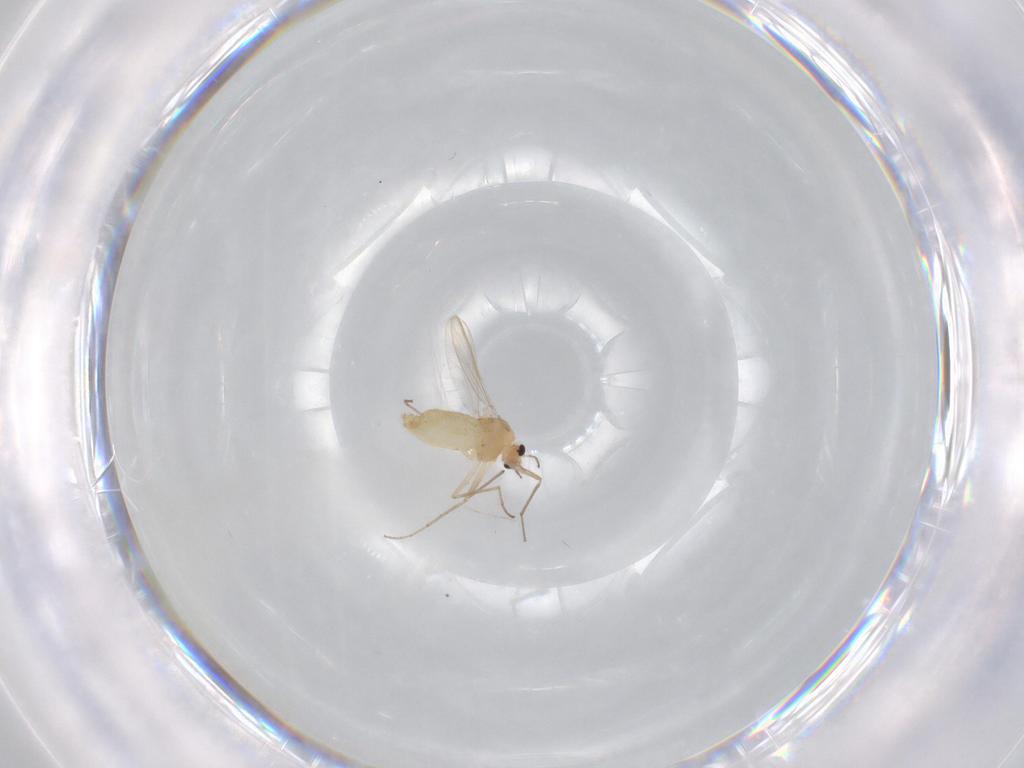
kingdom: Animalia
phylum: Arthropoda
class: Insecta
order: Diptera
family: Chironomidae
